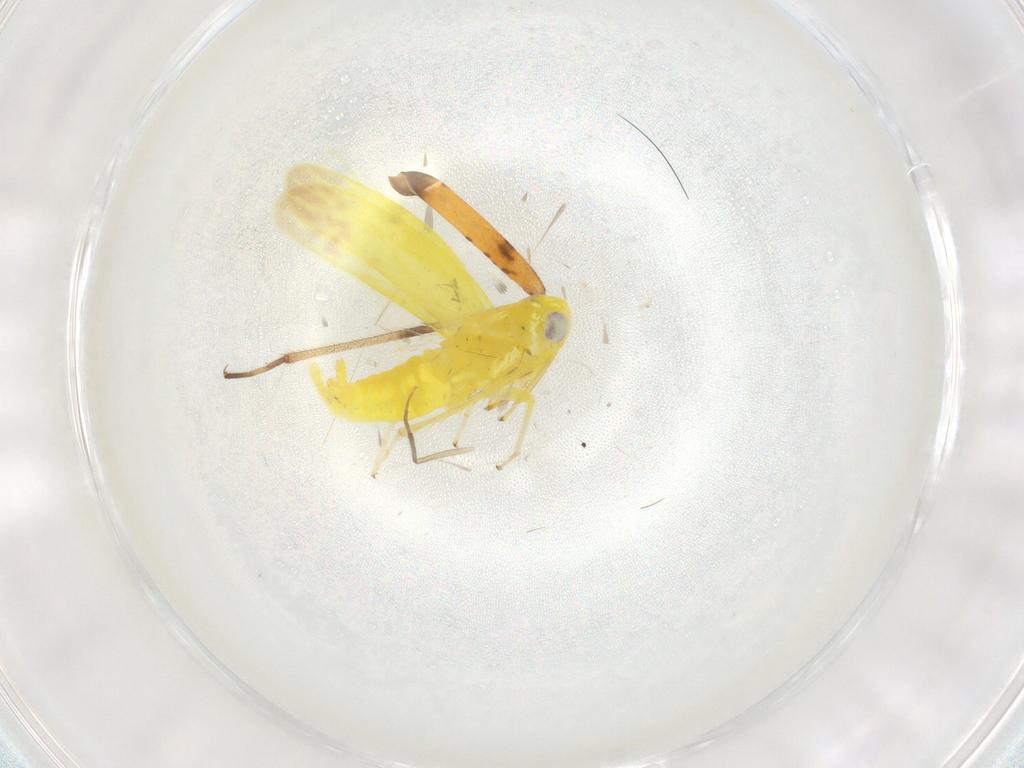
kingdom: Animalia
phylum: Arthropoda
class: Insecta
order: Hemiptera
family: Cicadellidae
